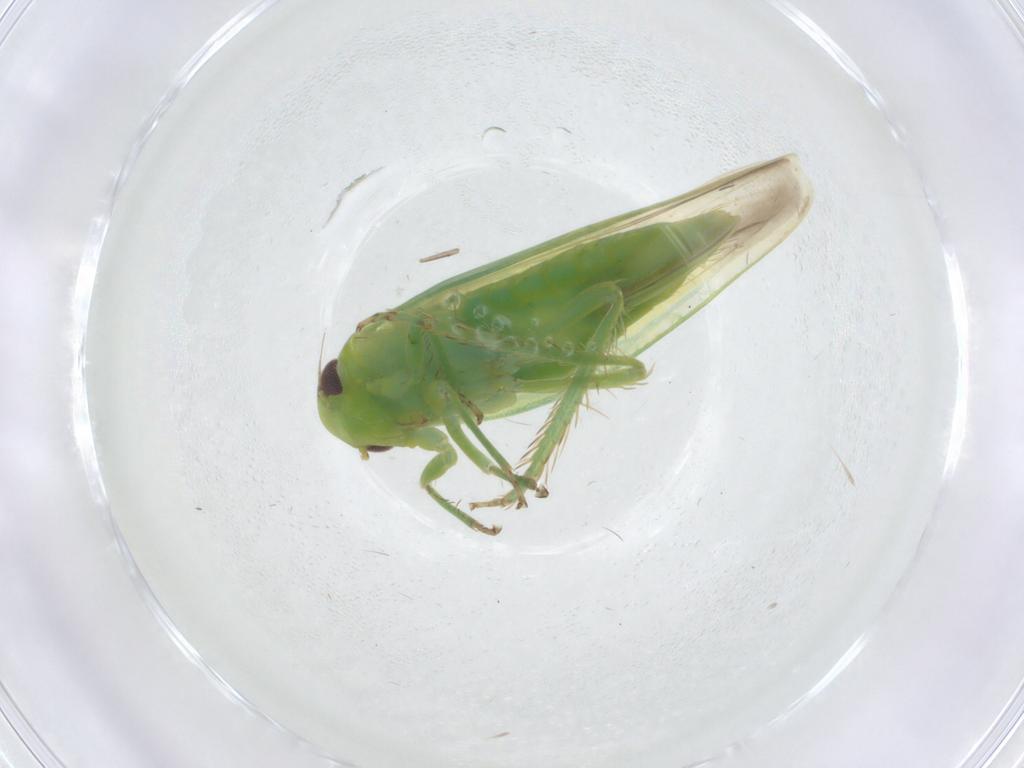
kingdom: Animalia
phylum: Arthropoda
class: Insecta
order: Hemiptera
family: Cicadellidae
